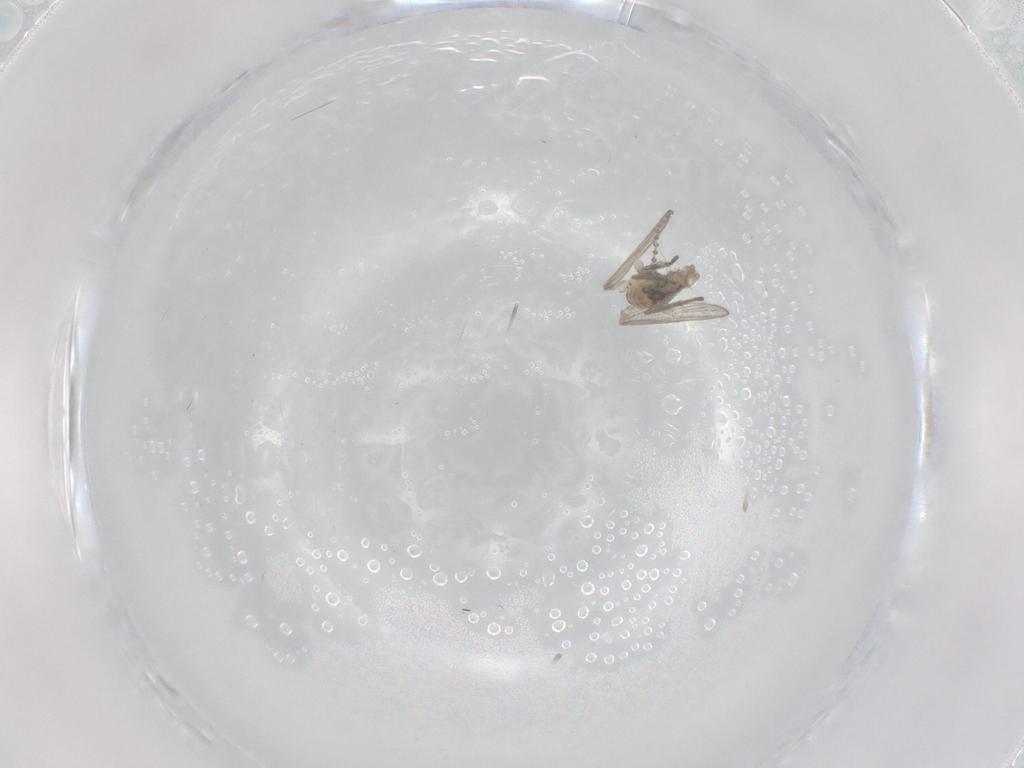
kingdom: Animalia
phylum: Arthropoda
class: Insecta
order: Diptera
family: Psychodidae
